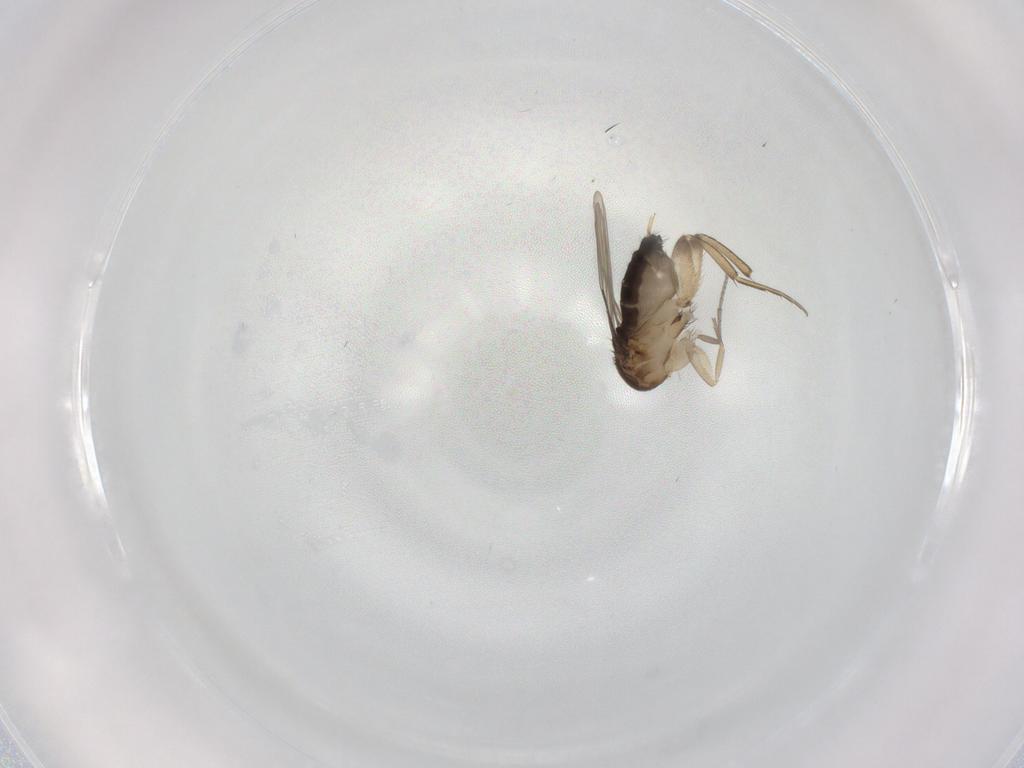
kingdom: Animalia
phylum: Arthropoda
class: Insecta
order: Diptera
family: Phoridae
